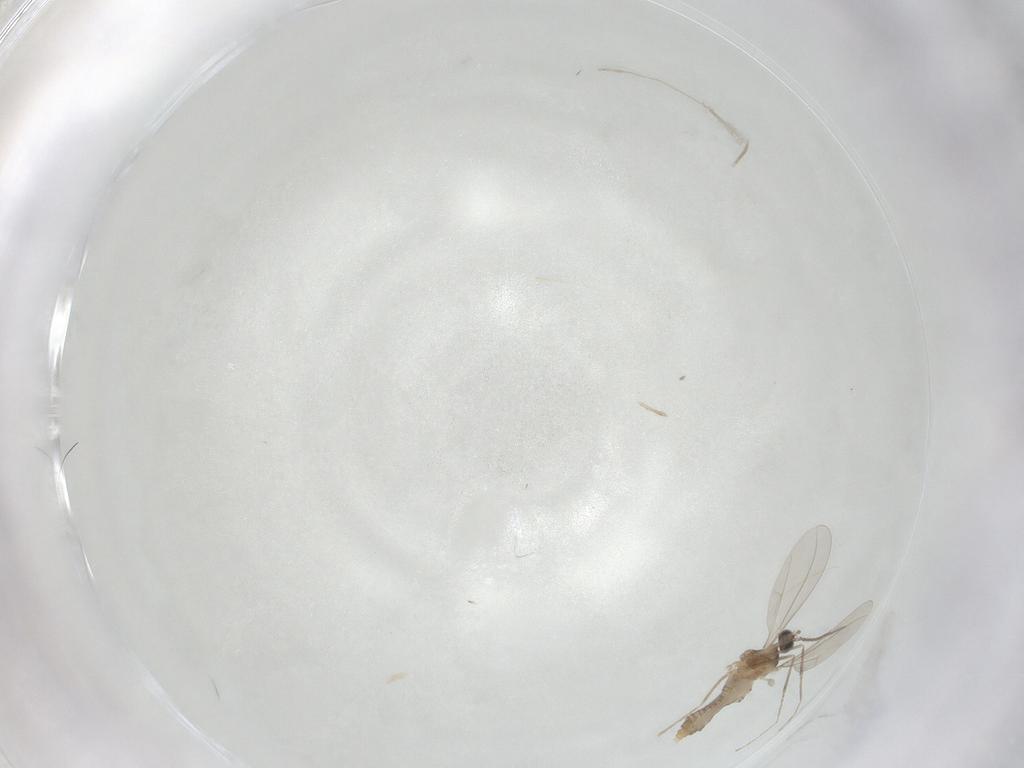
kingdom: Animalia
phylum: Arthropoda
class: Insecta
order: Diptera
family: Cecidomyiidae
